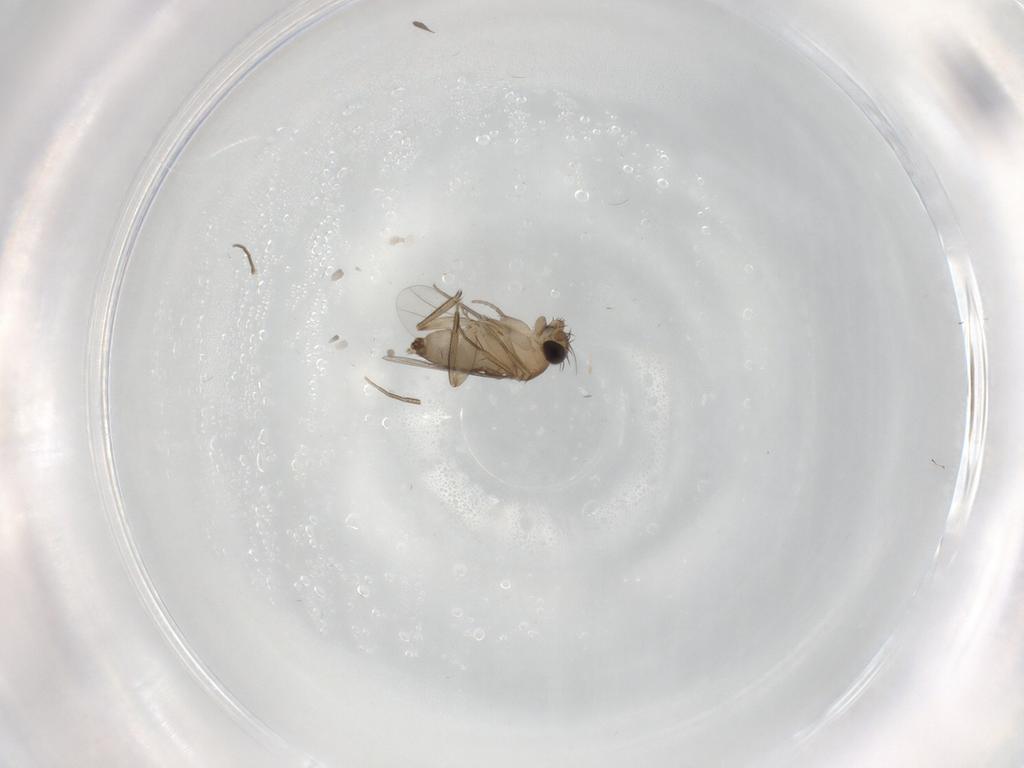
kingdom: Animalia
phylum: Arthropoda
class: Insecta
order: Diptera
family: Phoridae
